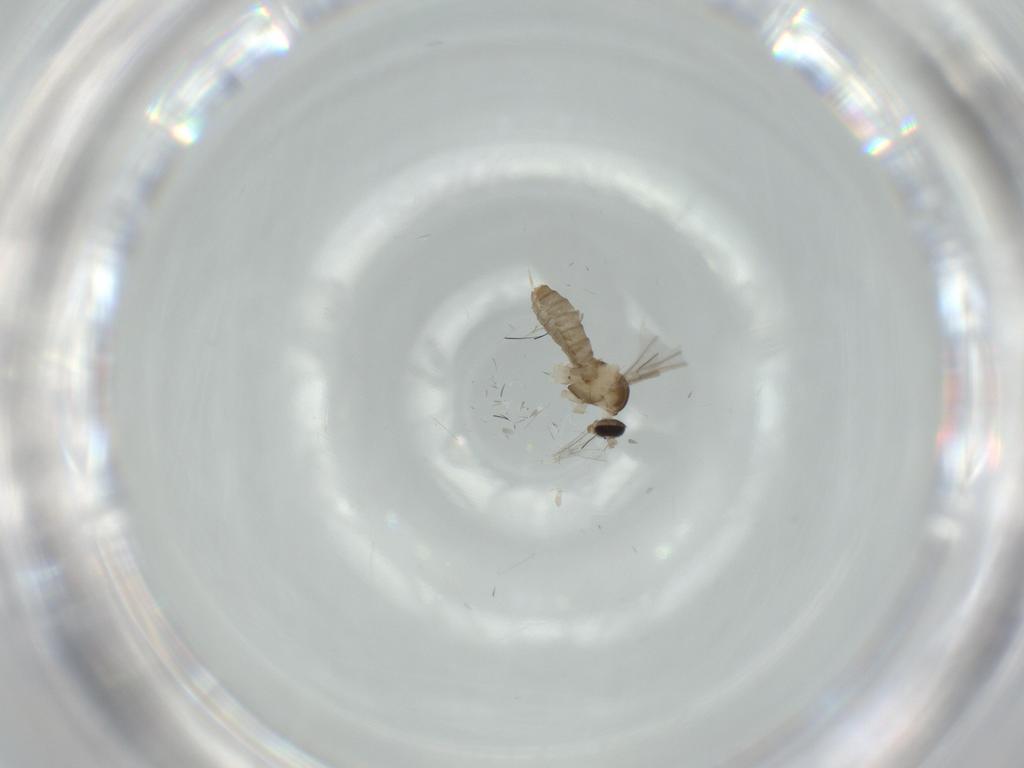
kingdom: Animalia
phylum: Arthropoda
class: Insecta
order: Diptera
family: Cecidomyiidae
